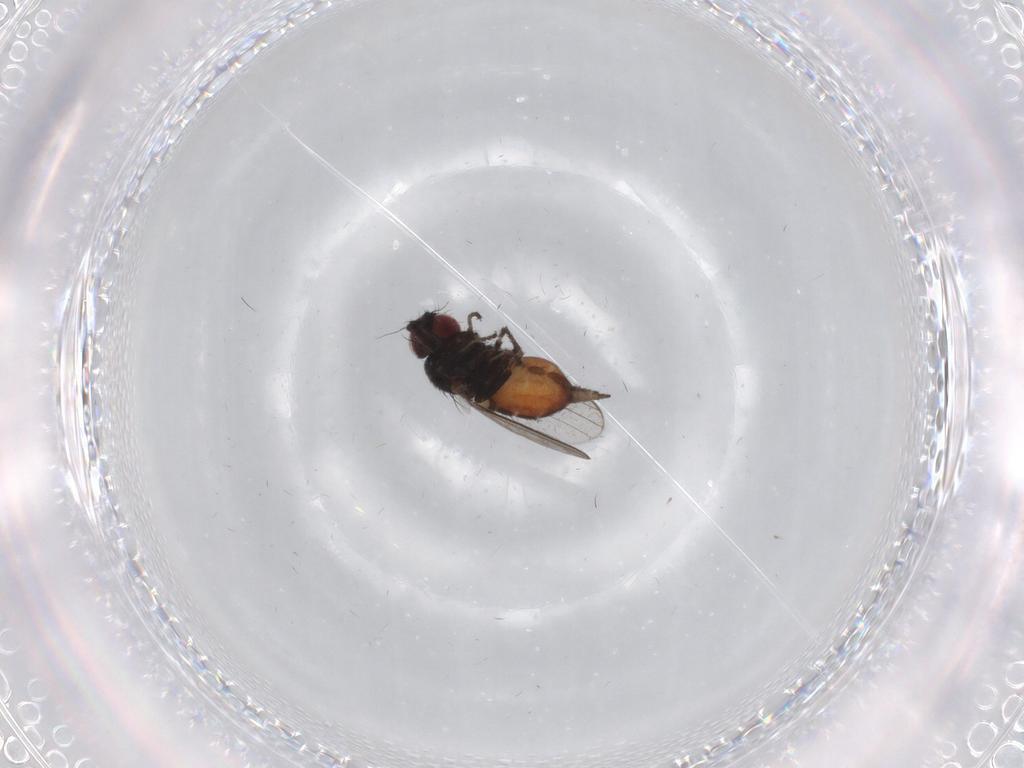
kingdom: Animalia
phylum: Arthropoda
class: Insecta
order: Diptera
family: Milichiidae
